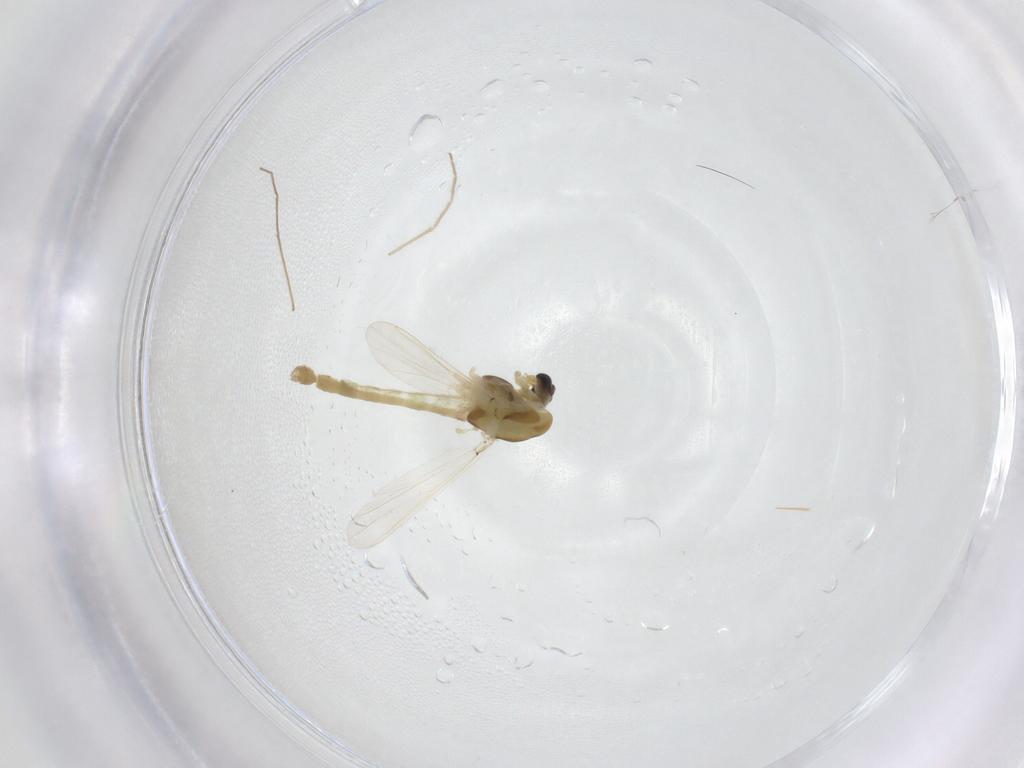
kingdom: Animalia
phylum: Arthropoda
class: Insecta
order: Diptera
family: Chironomidae
